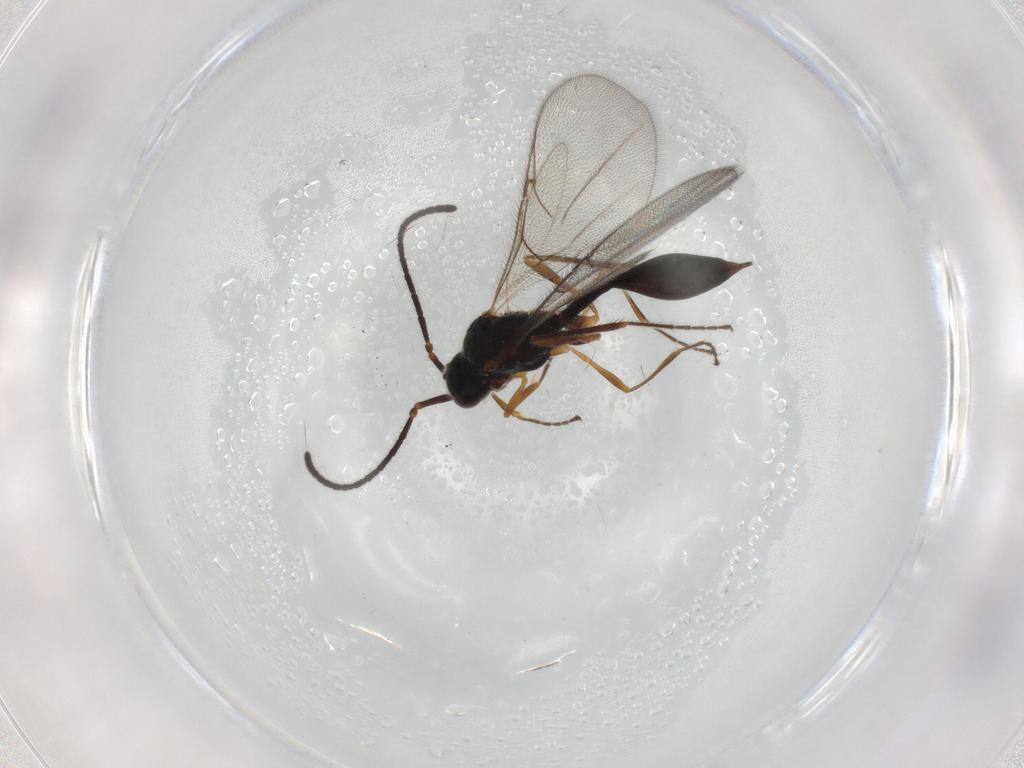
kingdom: Animalia
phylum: Arthropoda
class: Insecta
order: Hymenoptera
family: Diapriidae
